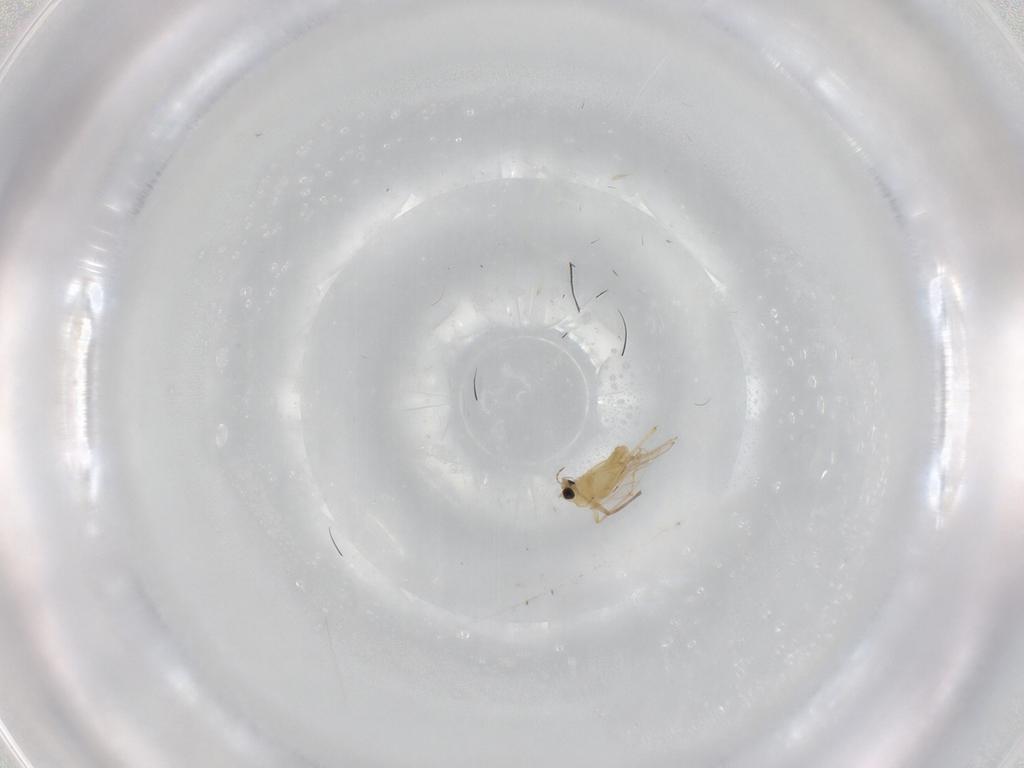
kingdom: Animalia
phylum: Arthropoda
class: Insecta
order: Diptera
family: Chironomidae
